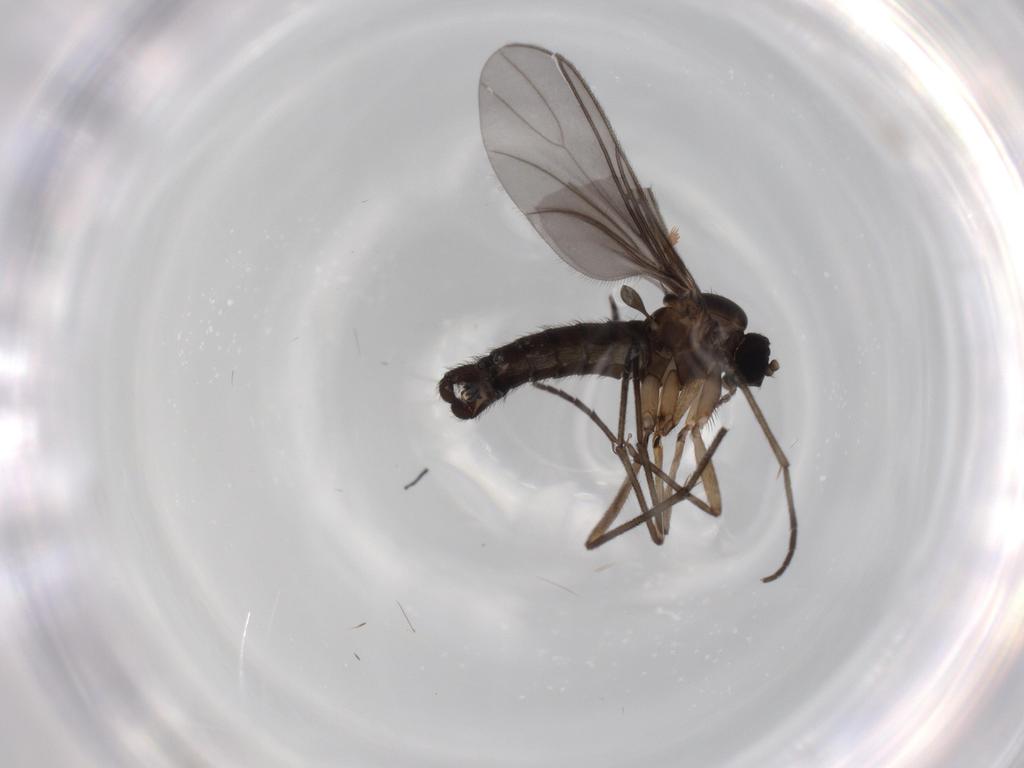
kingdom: Animalia
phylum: Arthropoda
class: Insecta
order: Diptera
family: Sciaridae
